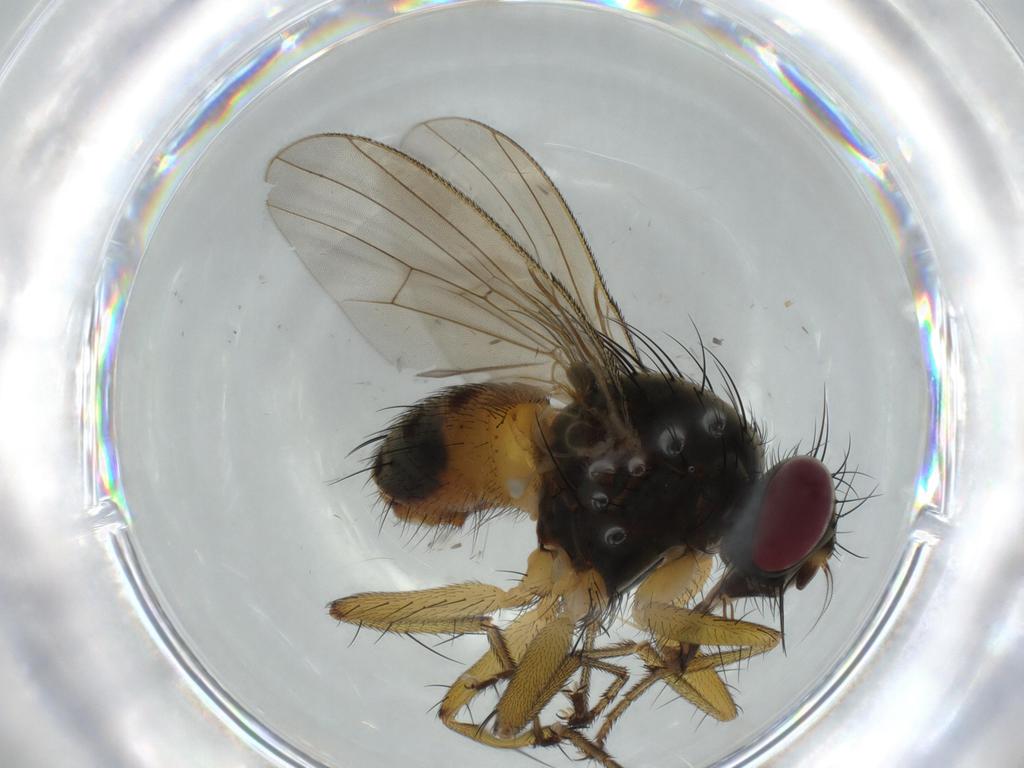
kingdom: Animalia
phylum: Arthropoda
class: Insecta
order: Diptera
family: Muscidae
